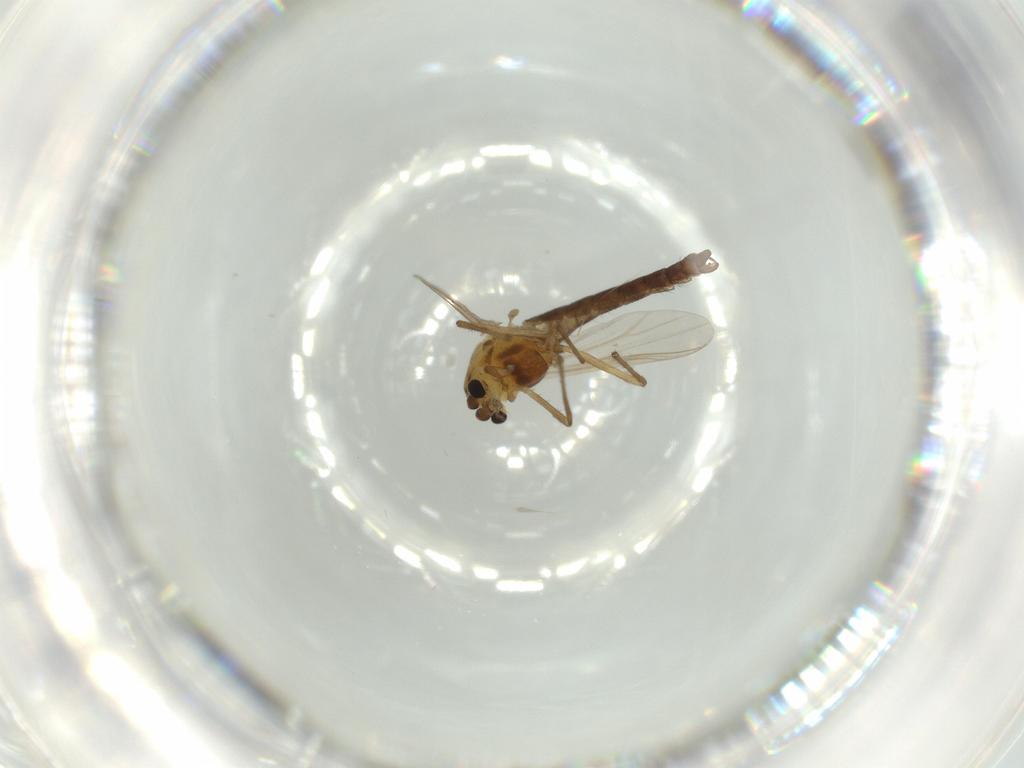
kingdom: Animalia
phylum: Arthropoda
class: Insecta
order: Diptera
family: Chironomidae
